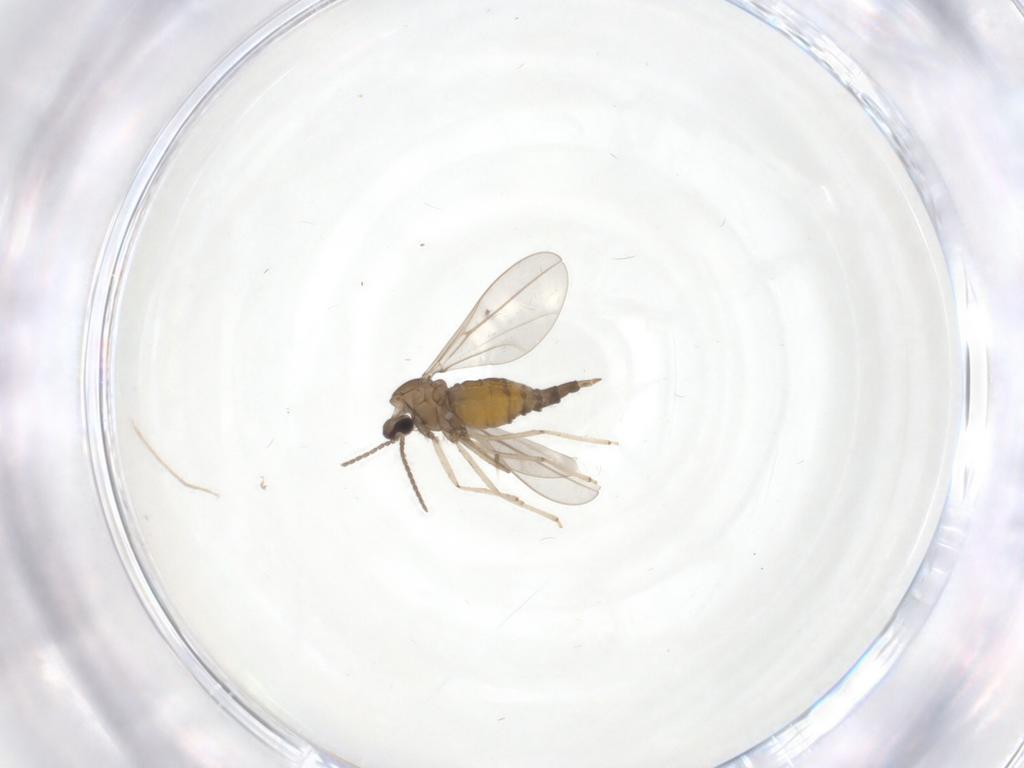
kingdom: Animalia
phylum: Arthropoda
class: Insecta
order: Diptera
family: Cecidomyiidae
